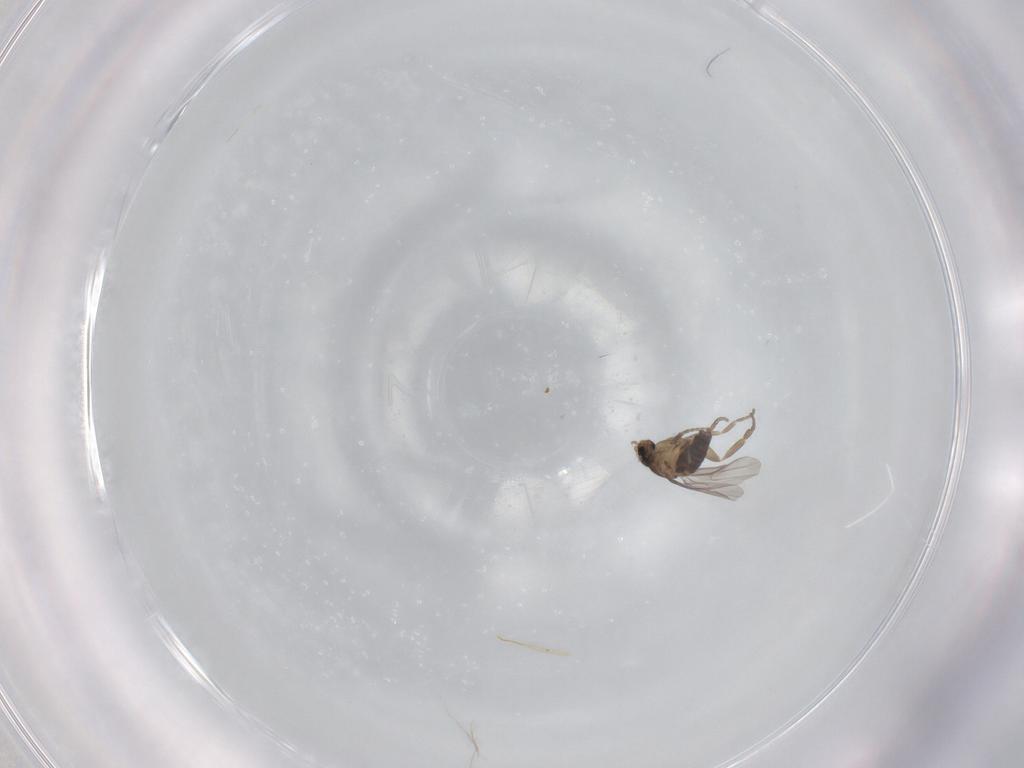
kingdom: Animalia
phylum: Arthropoda
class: Insecta
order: Diptera
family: Phoridae
